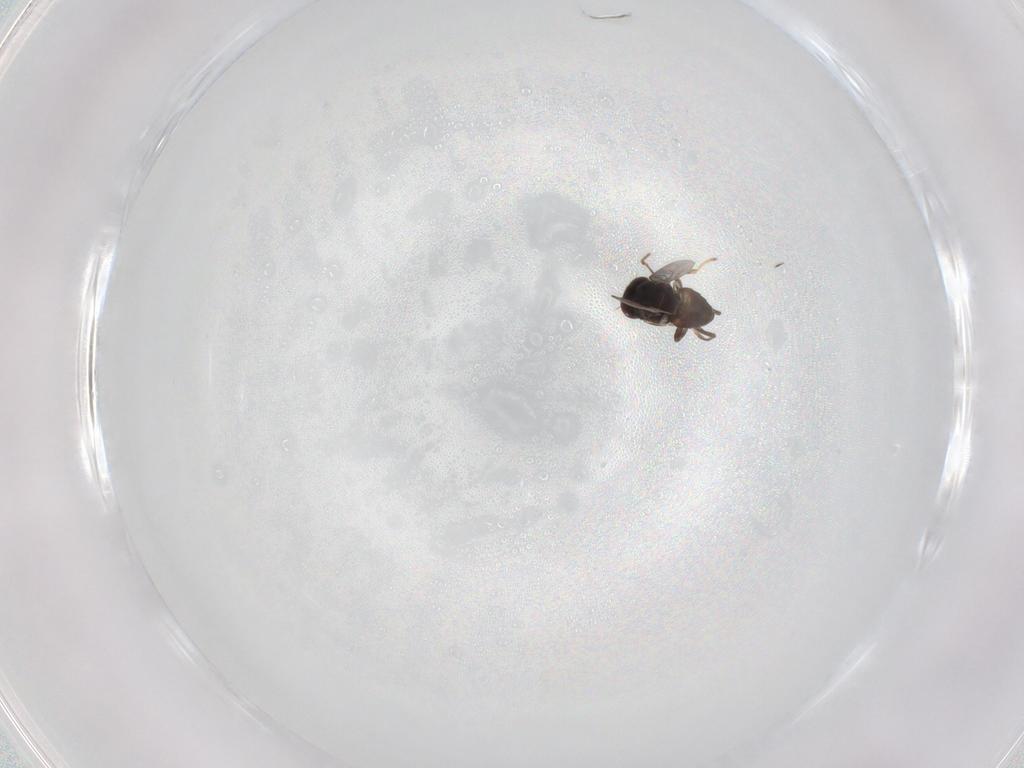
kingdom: Animalia
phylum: Arthropoda
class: Insecta
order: Diptera
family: Chloropidae
